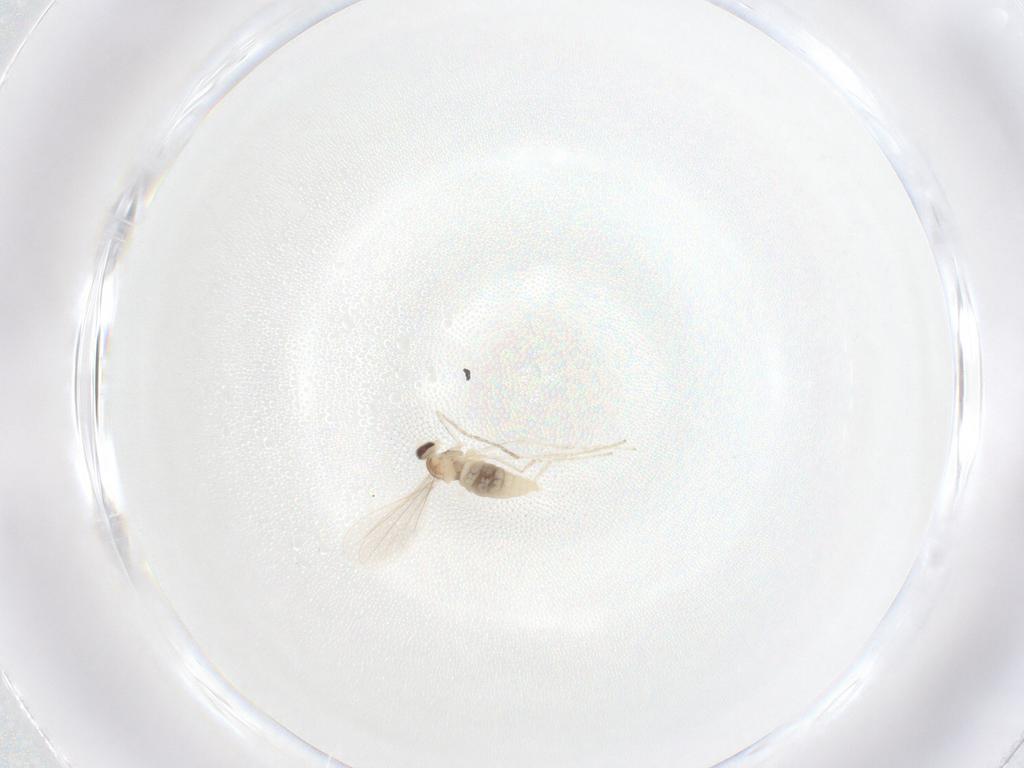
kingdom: Animalia
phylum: Arthropoda
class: Insecta
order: Diptera
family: Cecidomyiidae
